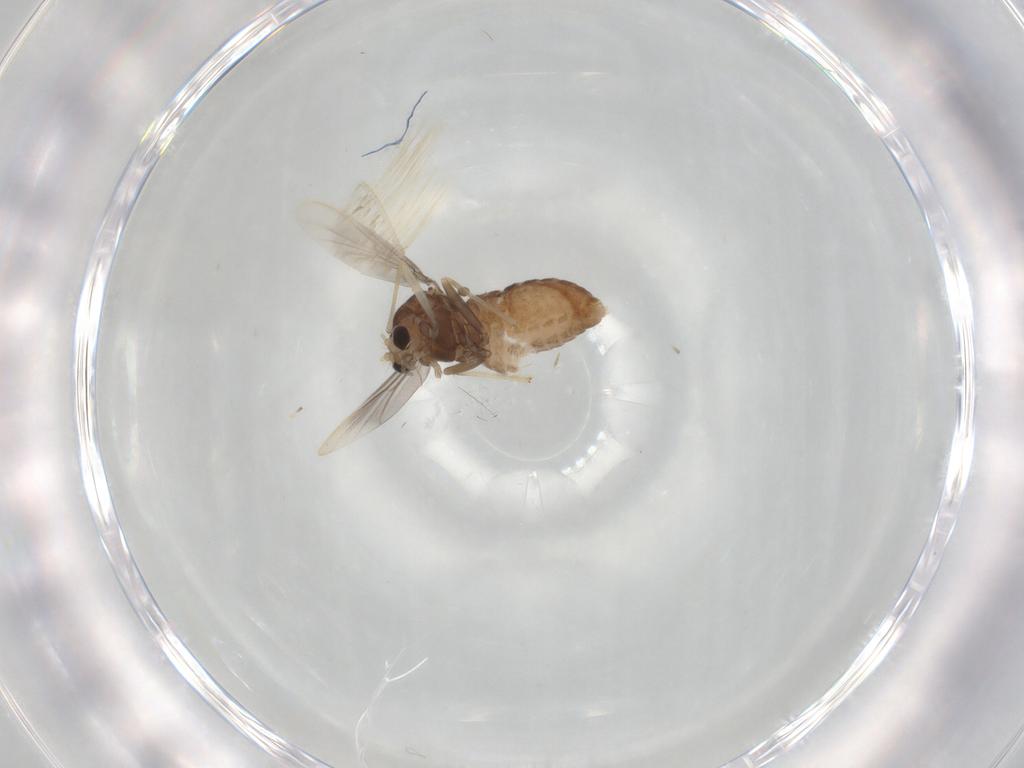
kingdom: Animalia
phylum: Arthropoda
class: Insecta
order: Diptera
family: Chironomidae
